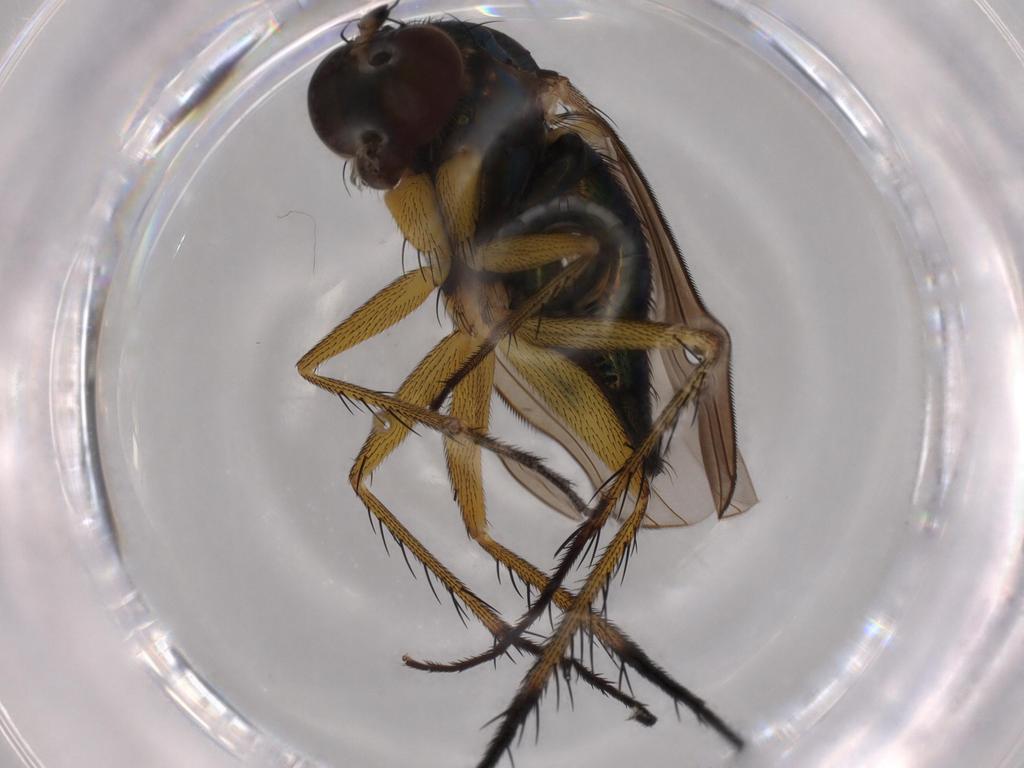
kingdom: Animalia
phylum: Arthropoda
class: Insecta
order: Diptera
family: Dolichopodidae
